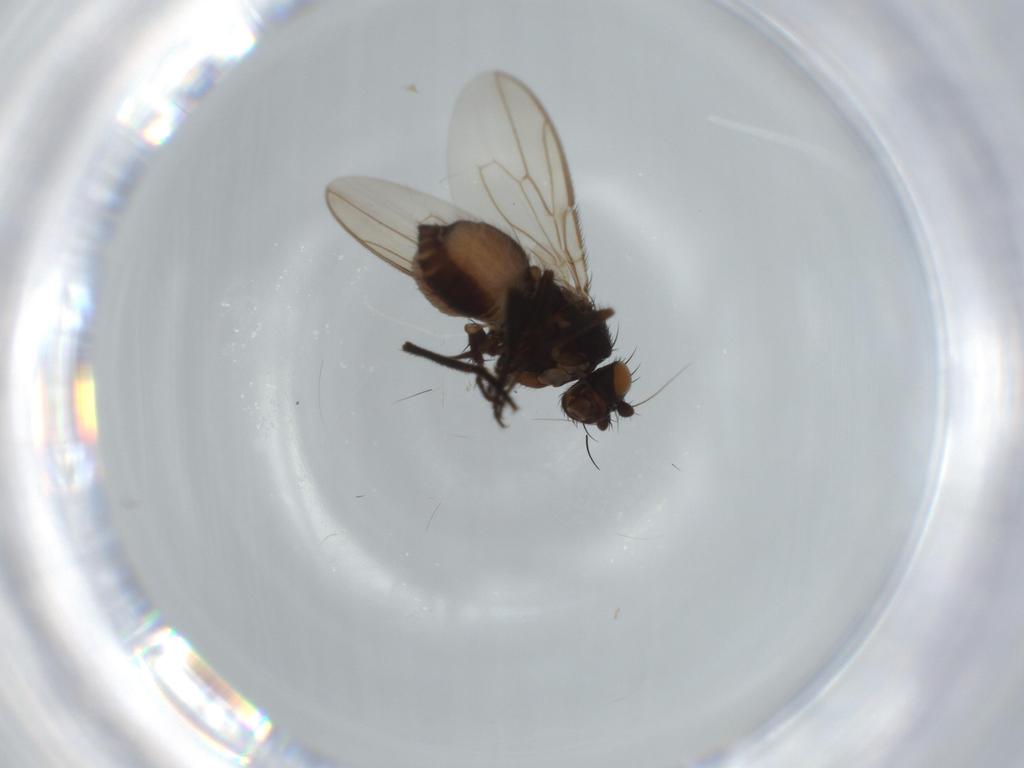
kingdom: Animalia
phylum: Arthropoda
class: Insecta
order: Diptera
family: Sphaeroceridae
